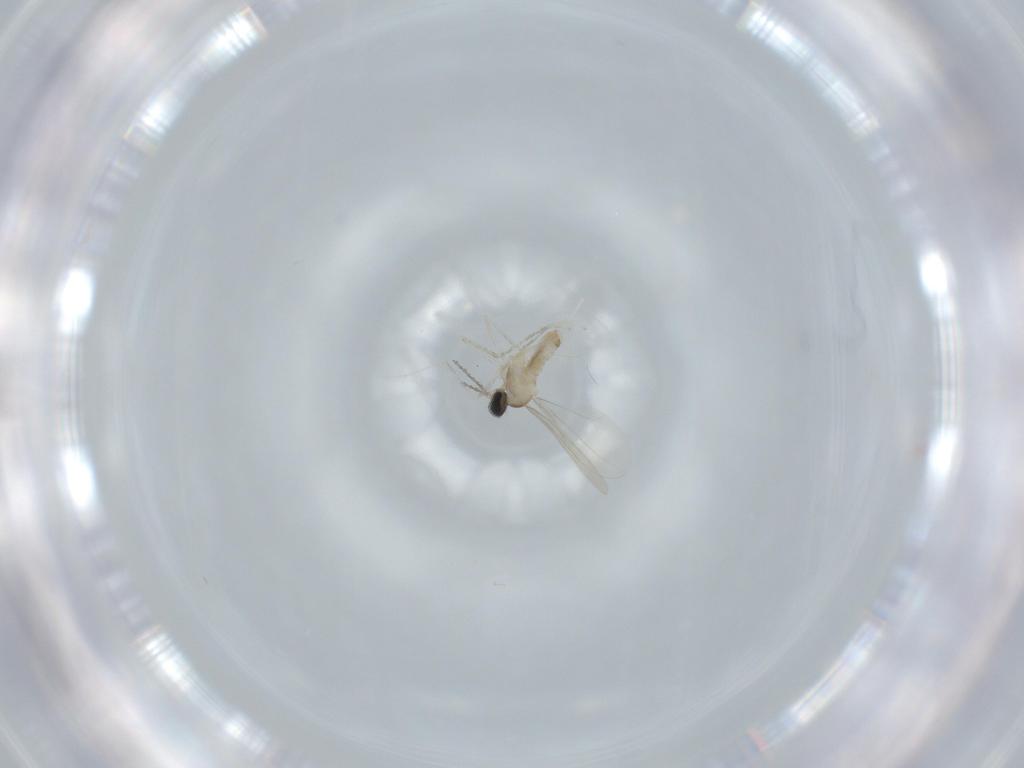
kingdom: Animalia
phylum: Arthropoda
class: Insecta
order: Diptera
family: Cecidomyiidae
